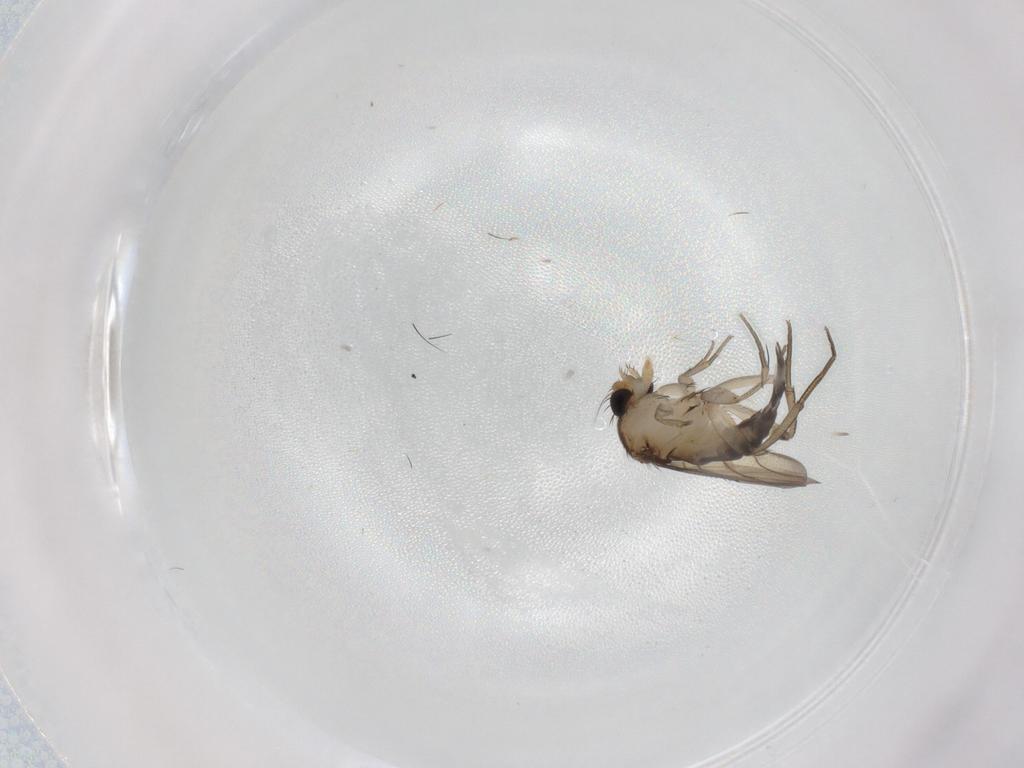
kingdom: Animalia
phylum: Arthropoda
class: Insecta
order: Diptera
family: Phoridae
